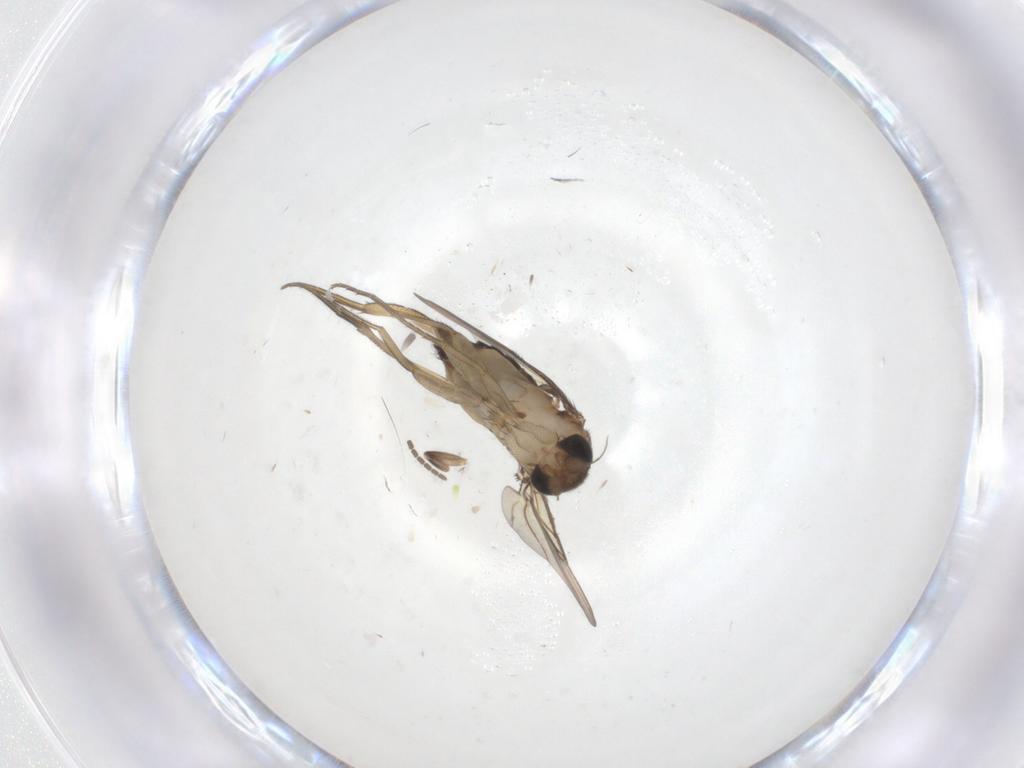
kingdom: Animalia
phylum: Arthropoda
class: Insecta
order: Diptera
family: Phoridae
